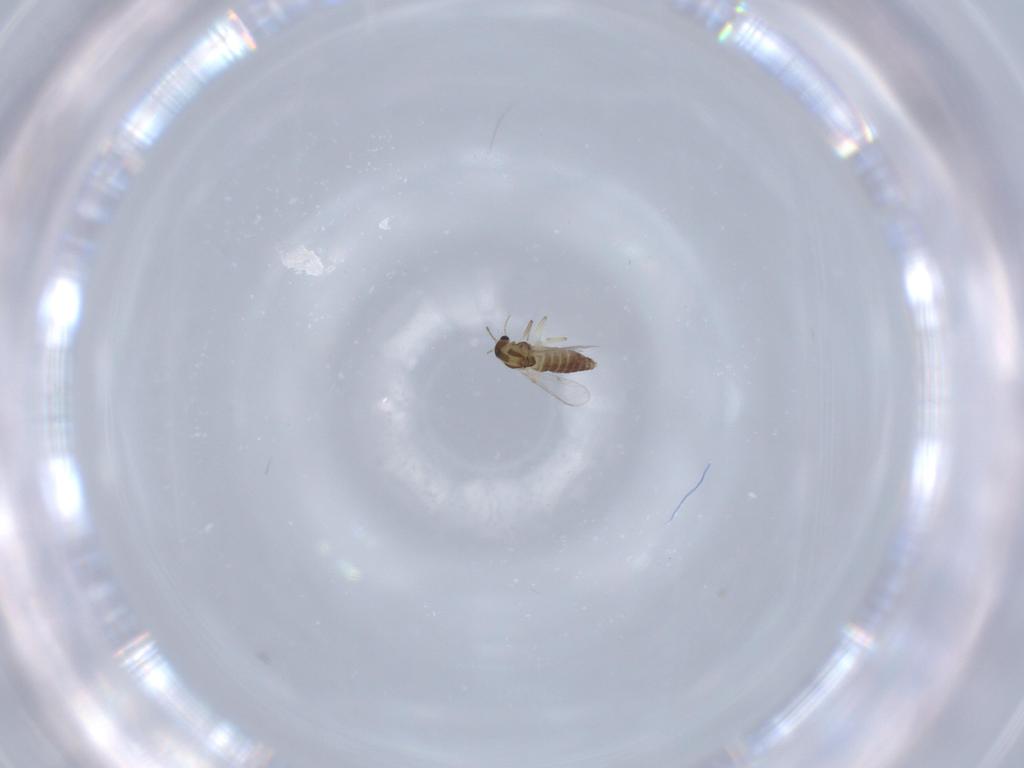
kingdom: Animalia
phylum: Arthropoda
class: Insecta
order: Diptera
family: Chironomidae
